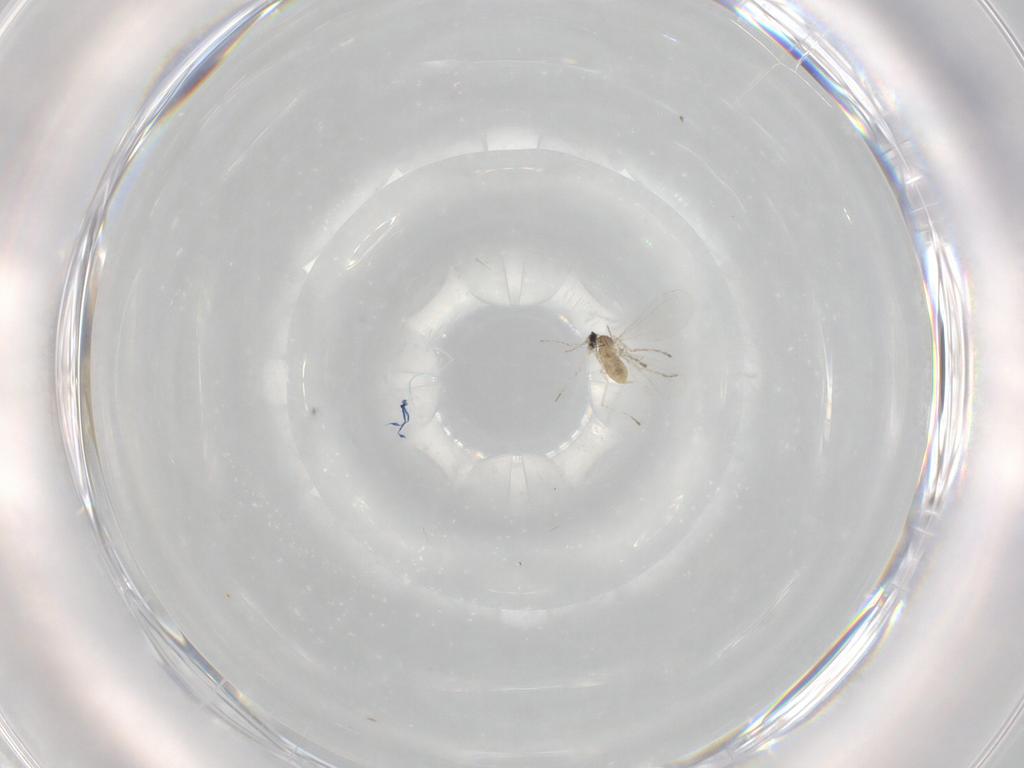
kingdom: Animalia
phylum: Arthropoda
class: Insecta
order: Diptera
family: Cecidomyiidae
